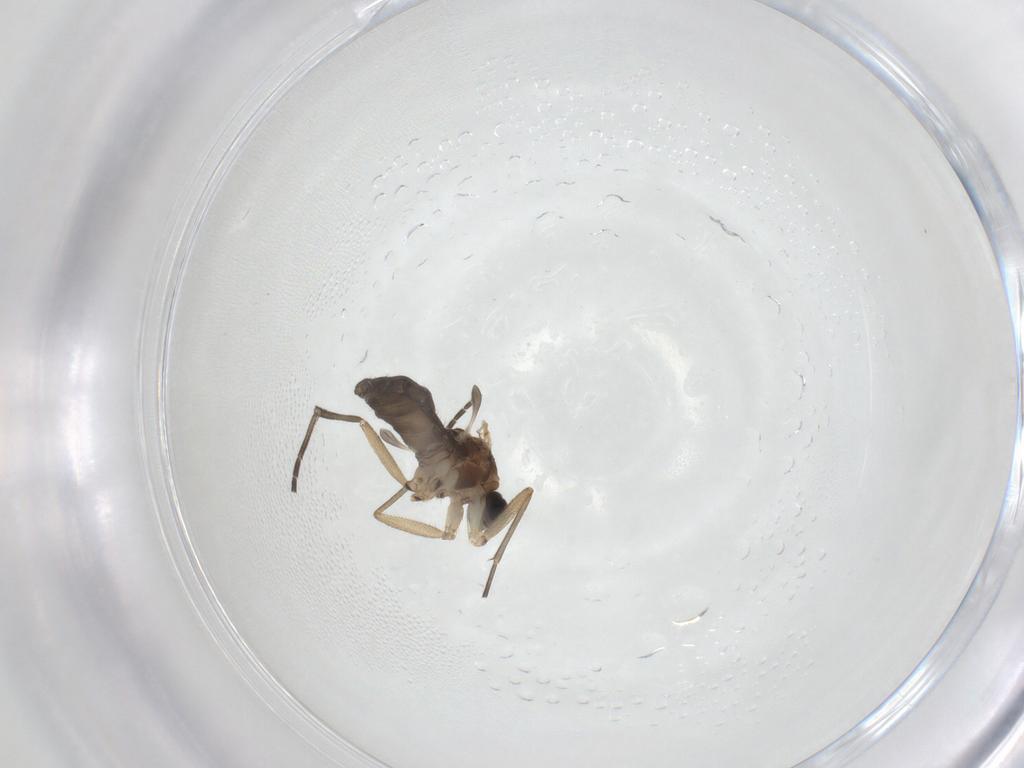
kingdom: Animalia
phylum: Arthropoda
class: Insecta
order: Diptera
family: Sciaridae
